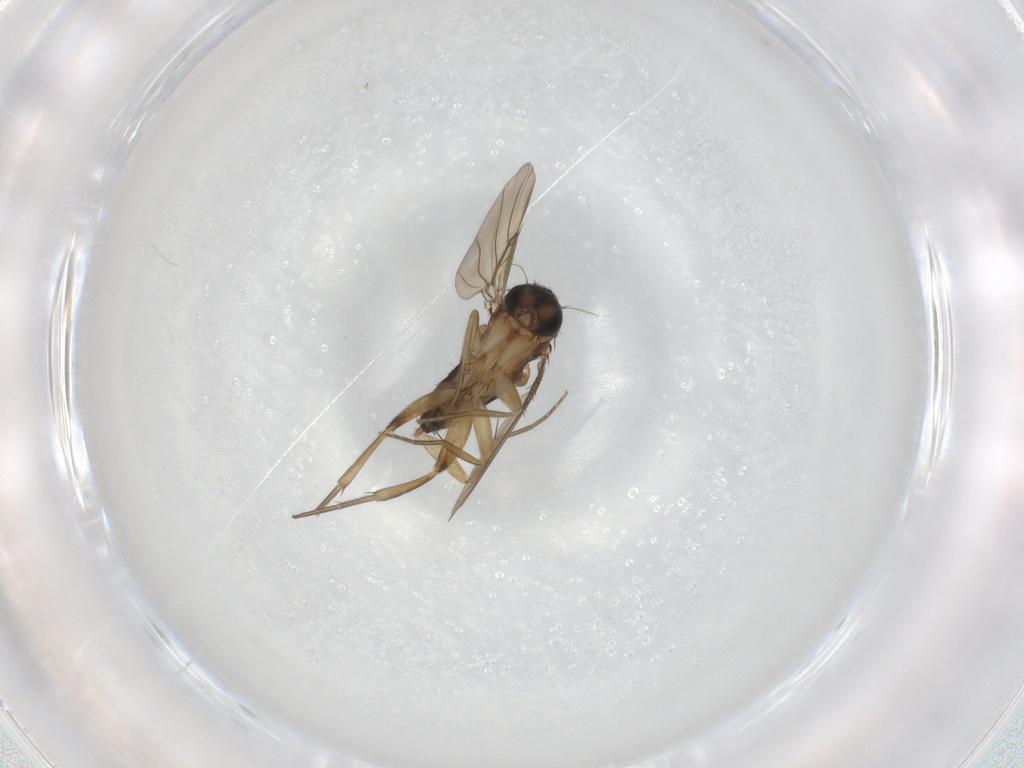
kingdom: Animalia
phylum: Arthropoda
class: Insecta
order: Diptera
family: Phoridae
